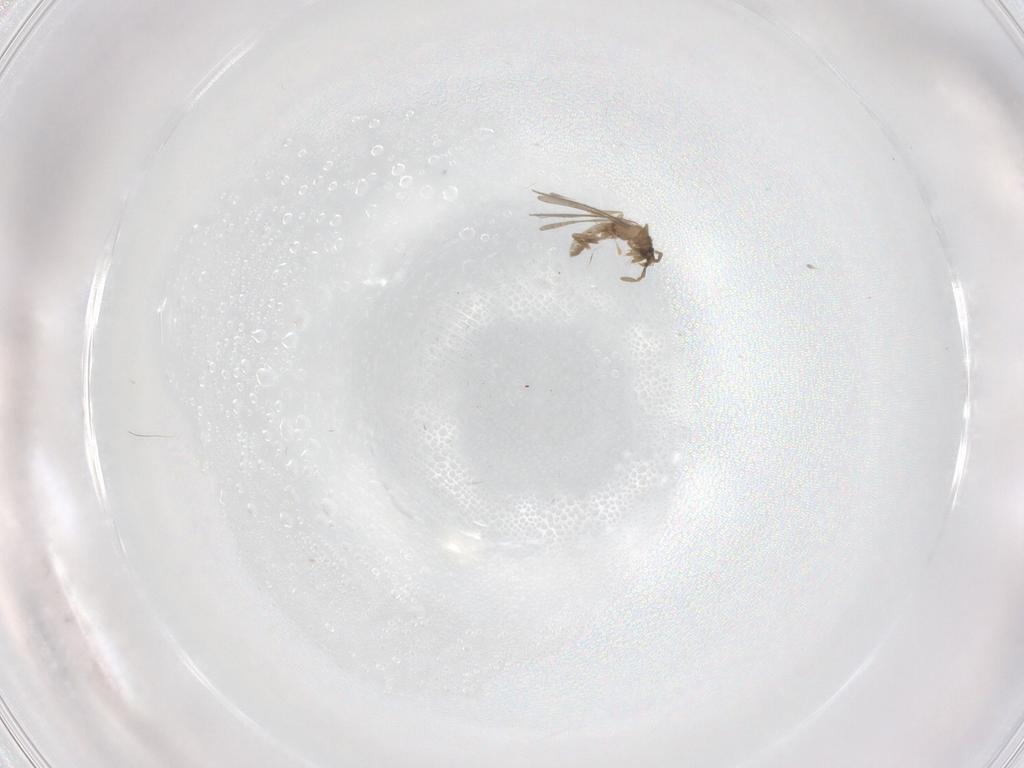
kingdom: Animalia
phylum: Arthropoda
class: Insecta
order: Hemiptera
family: Enicocephalidae
